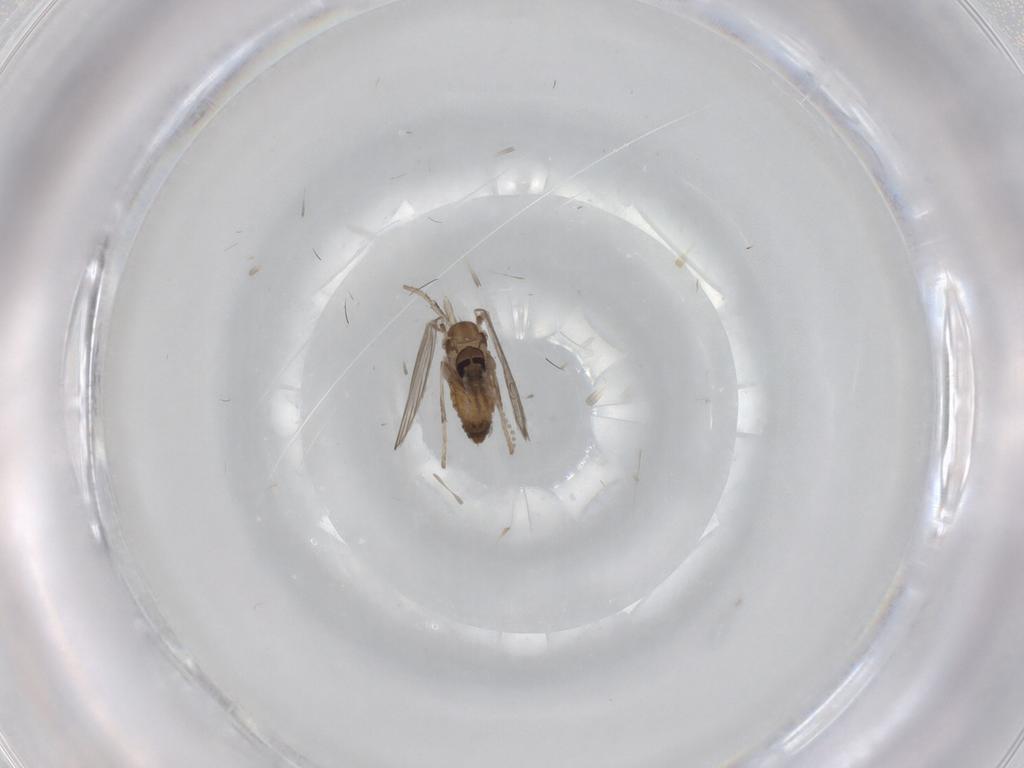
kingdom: Animalia
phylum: Arthropoda
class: Insecta
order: Diptera
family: Psychodidae
